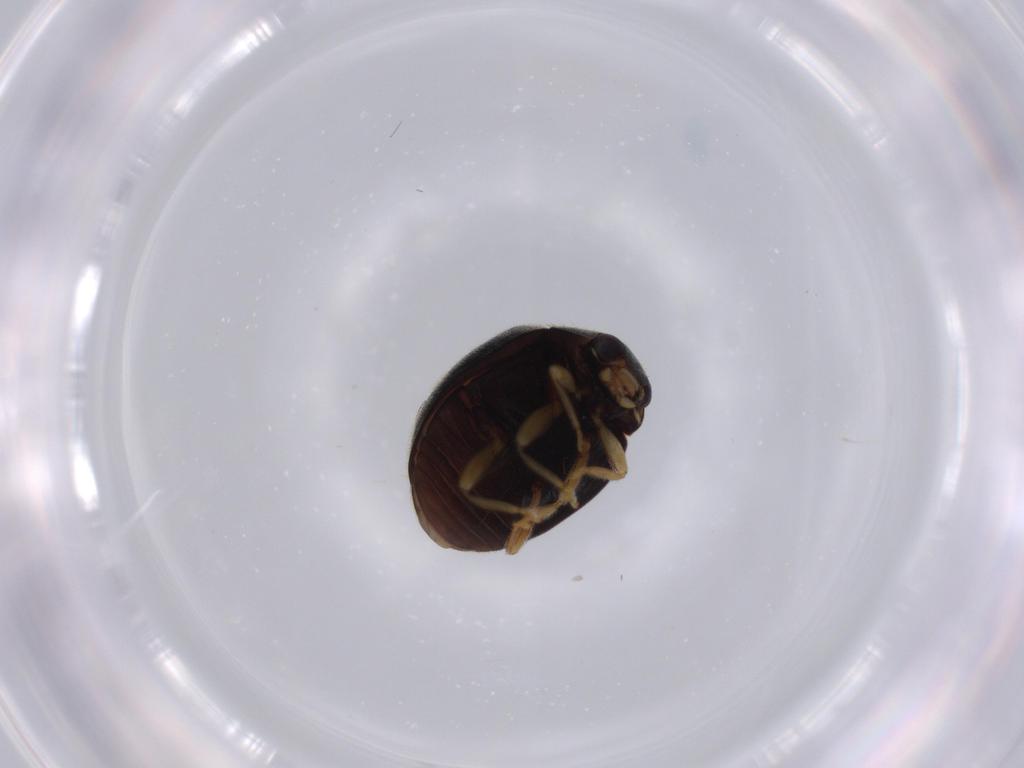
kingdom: Animalia
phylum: Arthropoda
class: Insecta
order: Coleoptera
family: Coccinellidae
